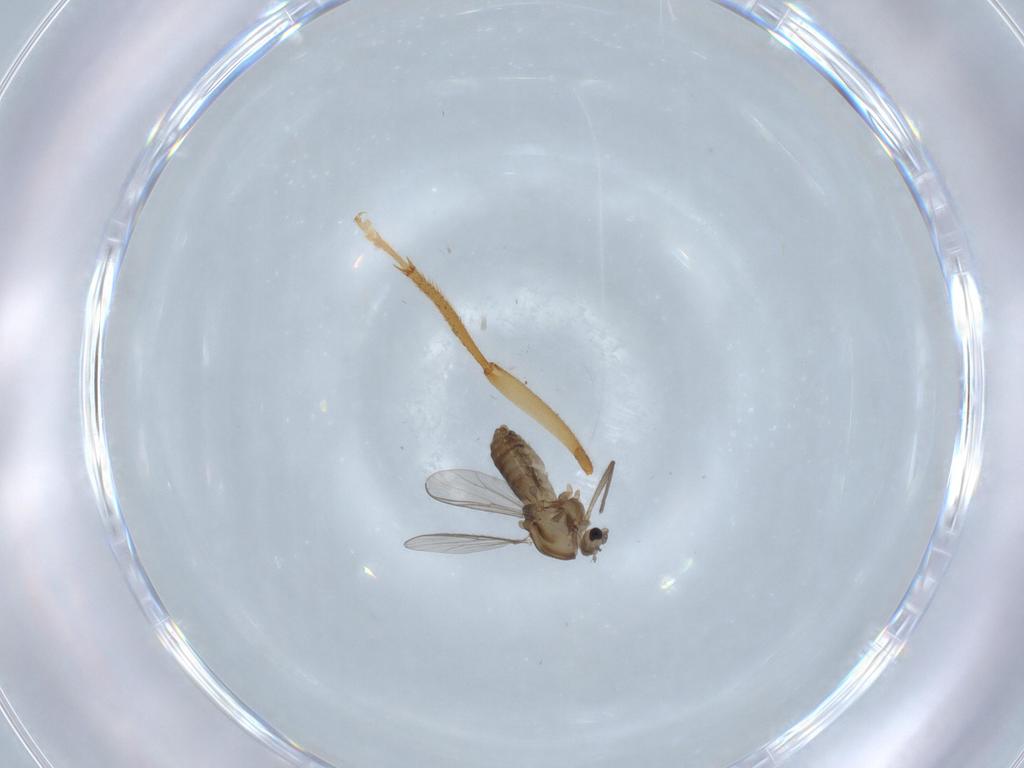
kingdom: Animalia
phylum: Arthropoda
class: Insecta
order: Diptera
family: Chironomidae
